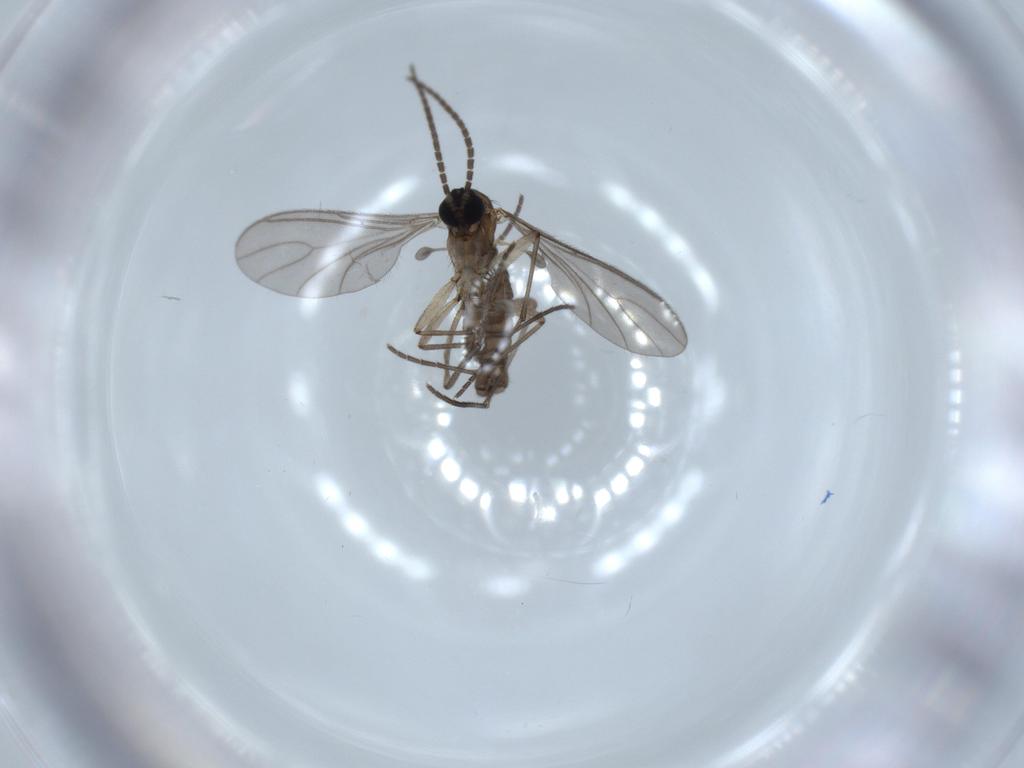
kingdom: Animalia
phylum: Arthropoda
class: Insecta
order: Diptera
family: Sciaridae
